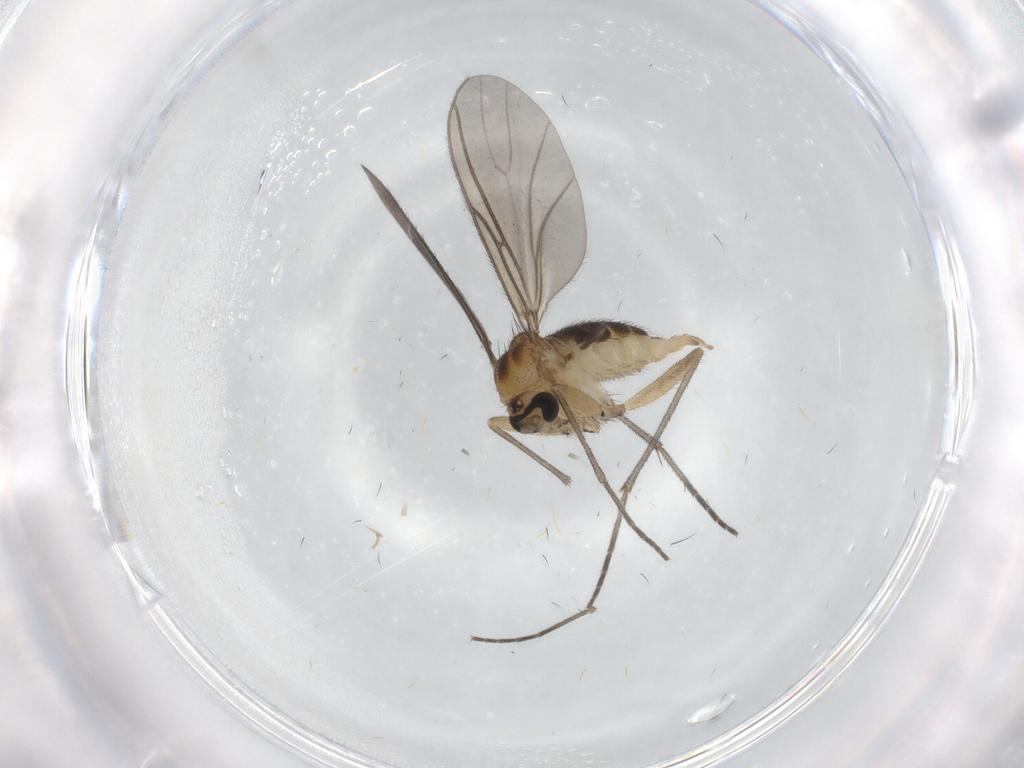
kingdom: Animalia
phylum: Arthropoda
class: Insecta
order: Diptera
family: Sciaridae
